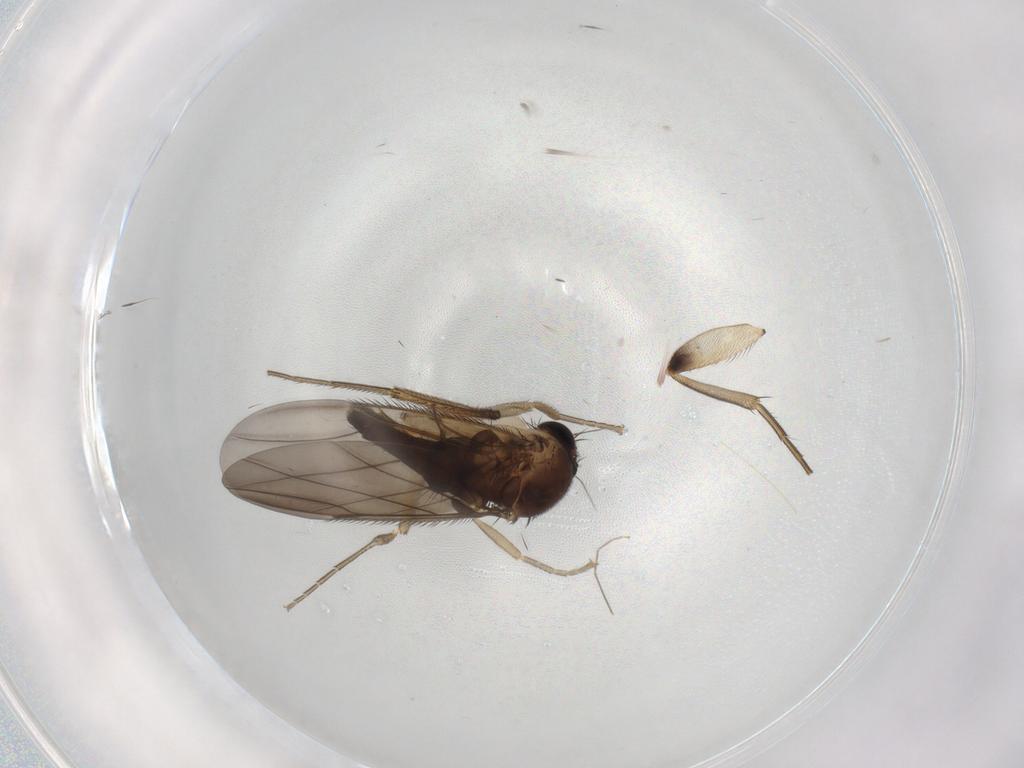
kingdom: Animalia
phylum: Arthropoda
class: Insecta
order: Diptera
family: Phoridae
